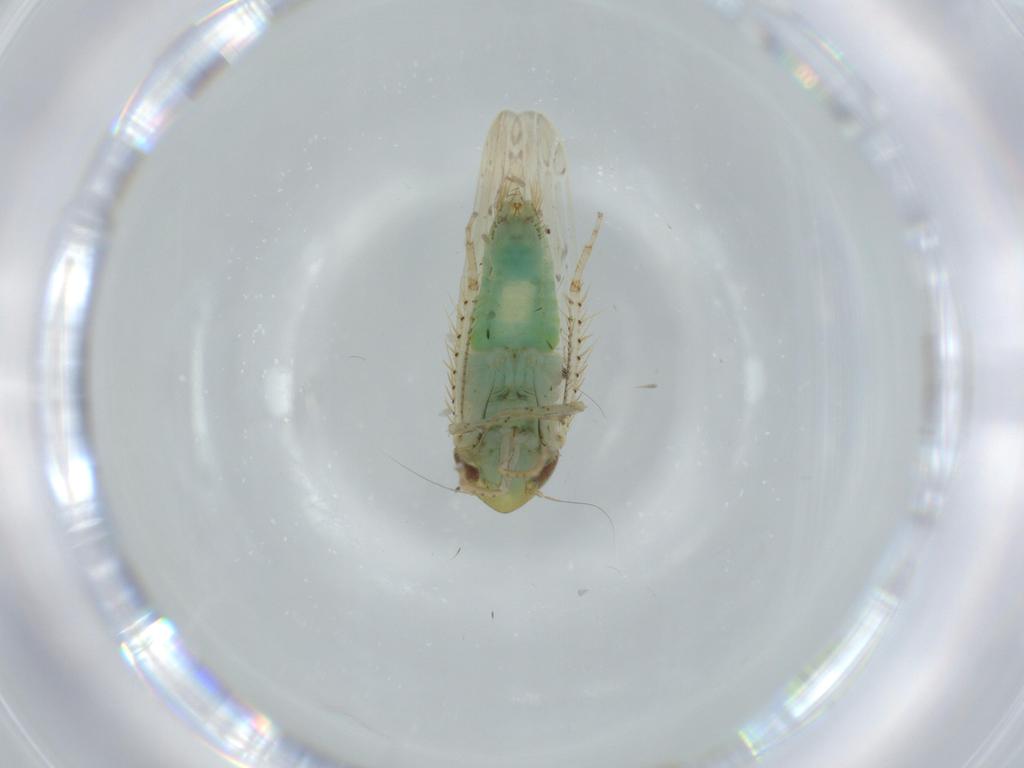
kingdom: Animalia
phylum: Arthropoda
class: Insecta
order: Hemiptera
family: Cicadellidae
